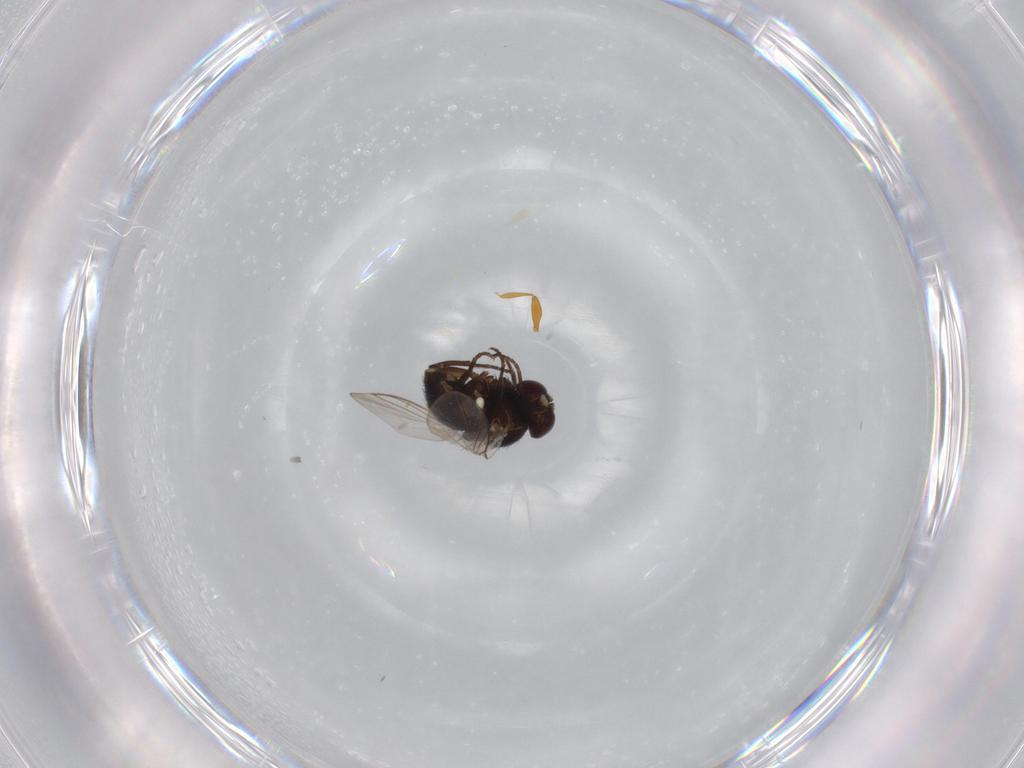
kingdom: Animalia
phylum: Arthropoda
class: Insecta
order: Diptera
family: Agromyzidae
